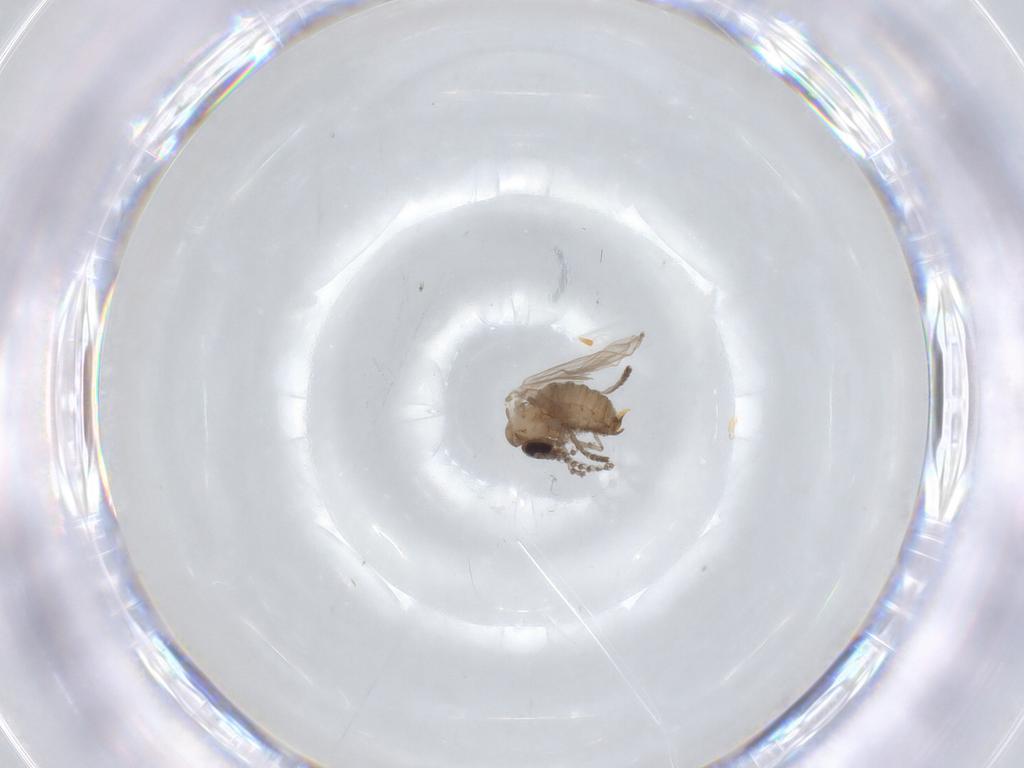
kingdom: Animalia
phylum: Arthropoda
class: Insecta
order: Diptera
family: Psychodidae
